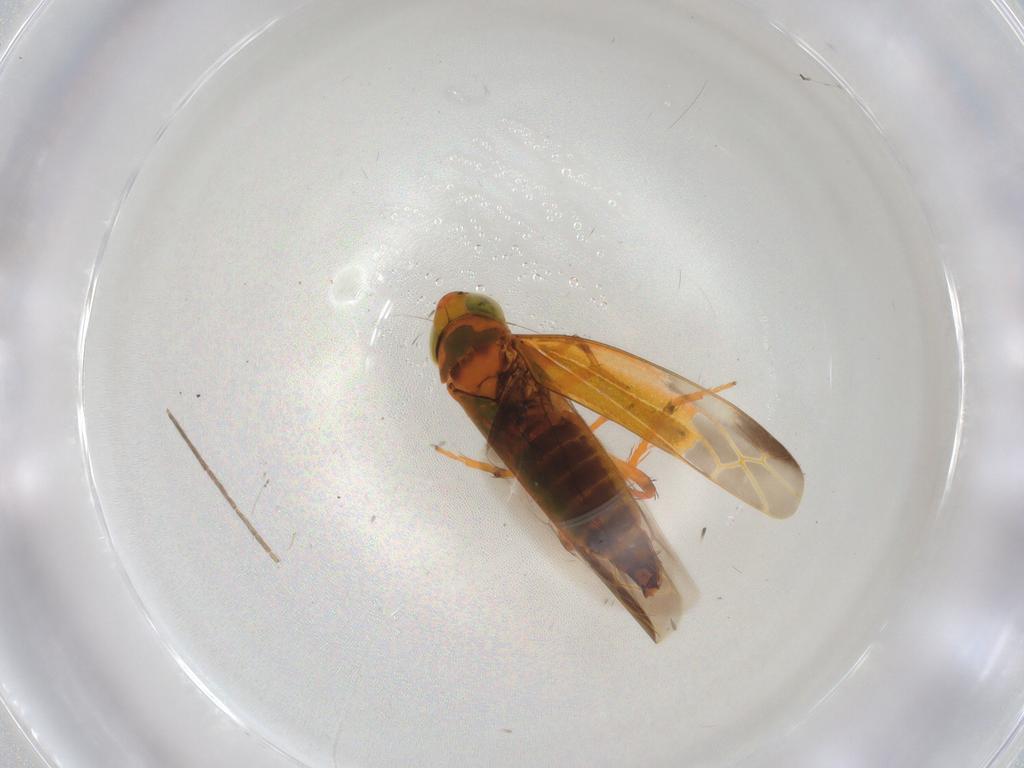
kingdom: Animalia
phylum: Arthropoda
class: Insecta
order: Hemiptera
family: Cicadellidae
